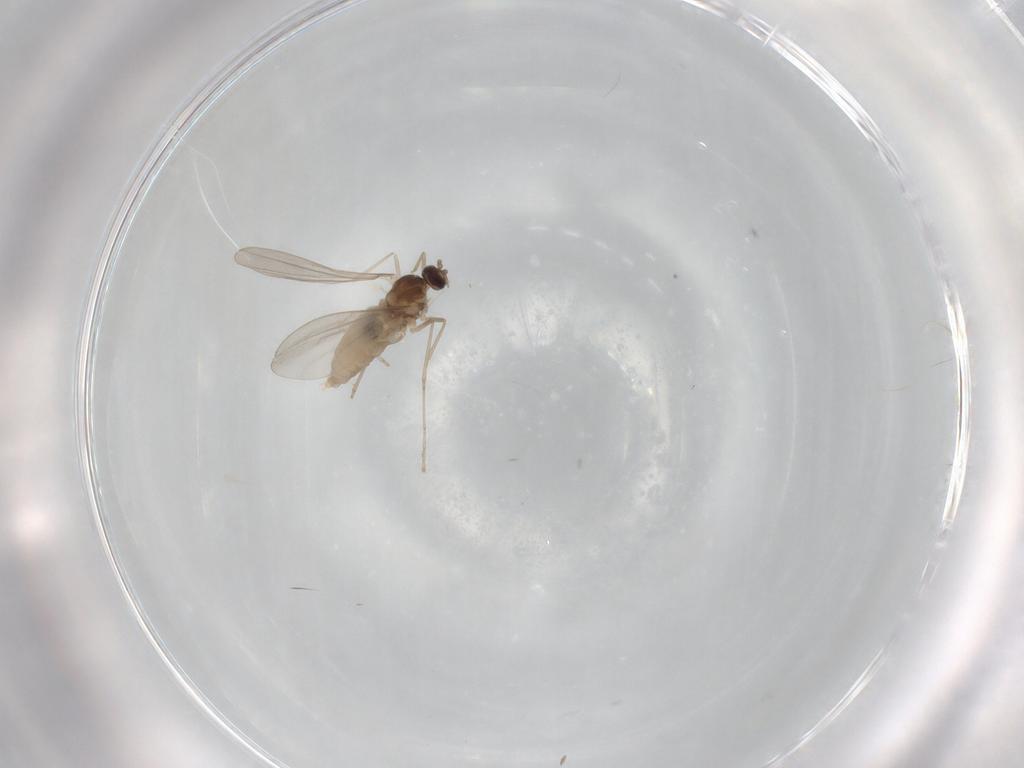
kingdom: Animalia
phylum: Arthropoda
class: Insecta
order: Diptera
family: Cecidomyiidae
